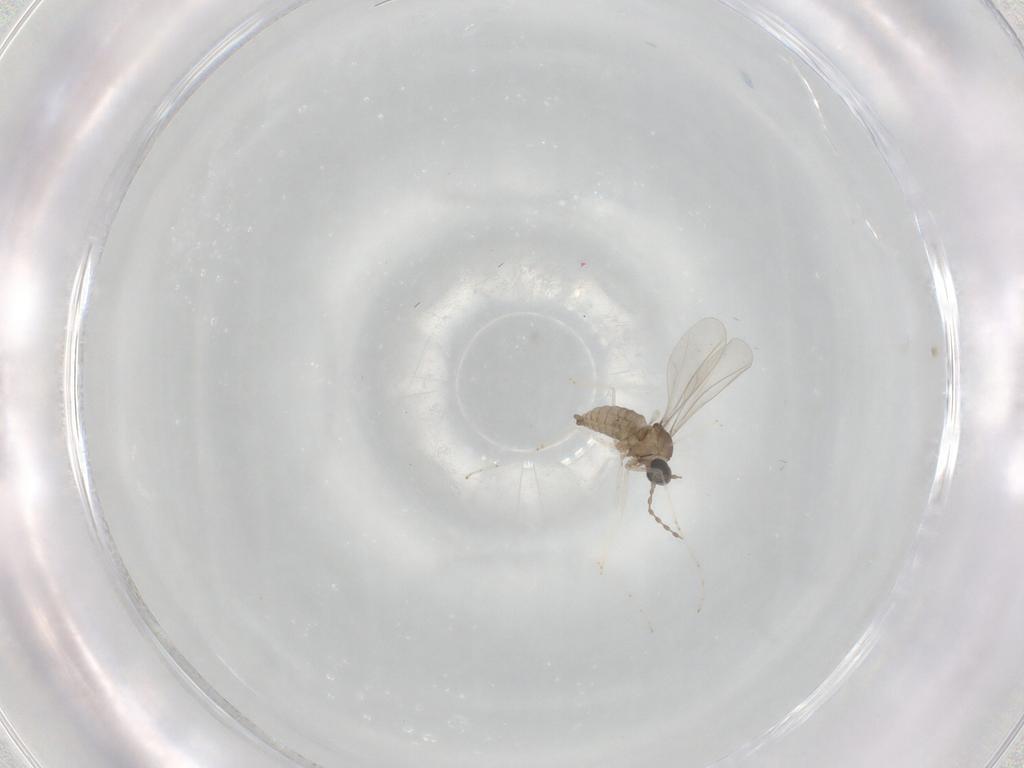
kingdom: Animalia
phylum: Arthropoda
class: Insecta
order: Diptera
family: Cecidomyiidae
